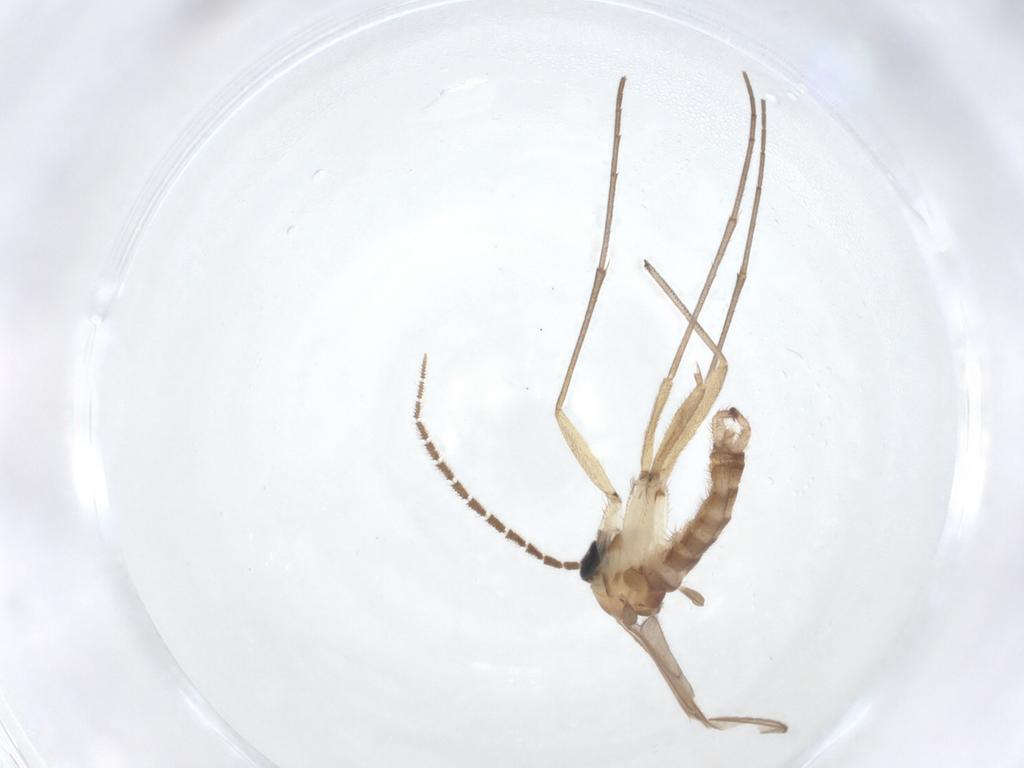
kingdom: Animalia
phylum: Arthropoda
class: Insecta
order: Diptera
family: Sciaridae
